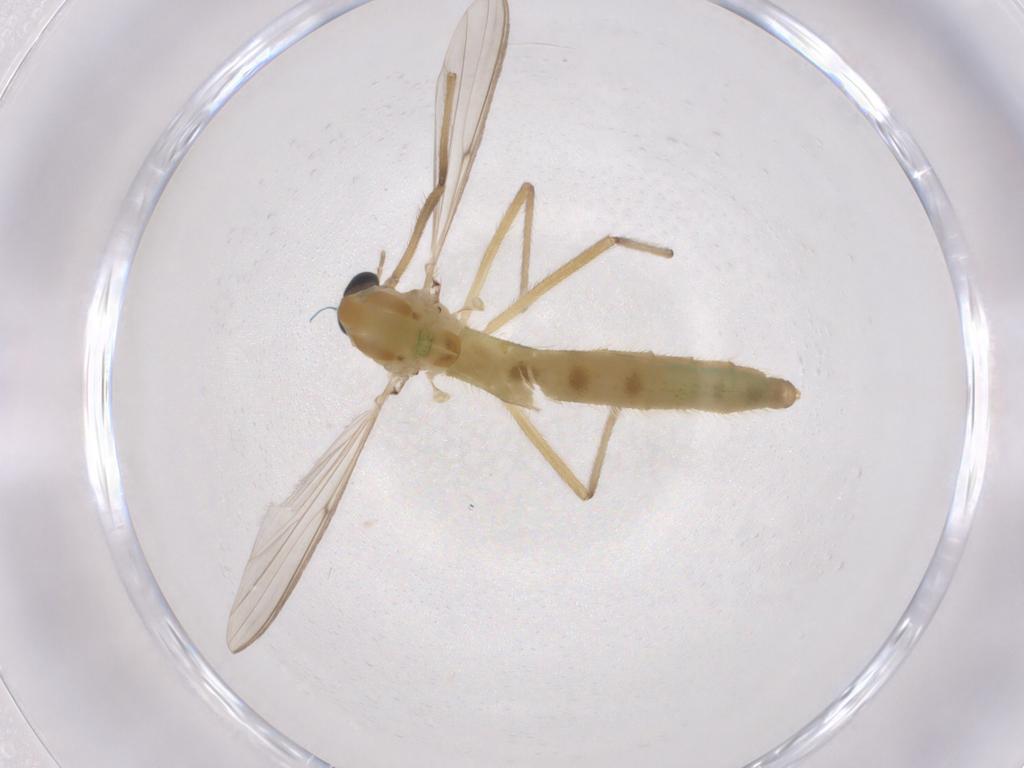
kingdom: Animalia
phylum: Arthropoda
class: Insecta
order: Diptera
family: Chironomidae
